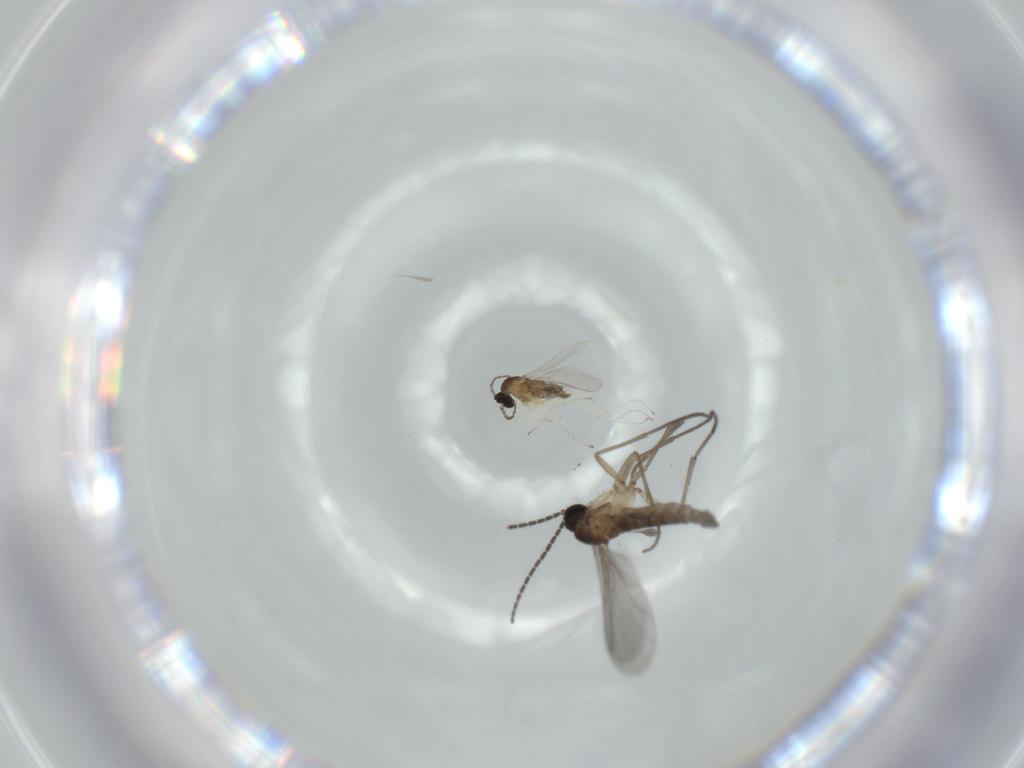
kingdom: Animalia
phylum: Arthropoda
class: Insecta
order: Diptera
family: Sciaridae
